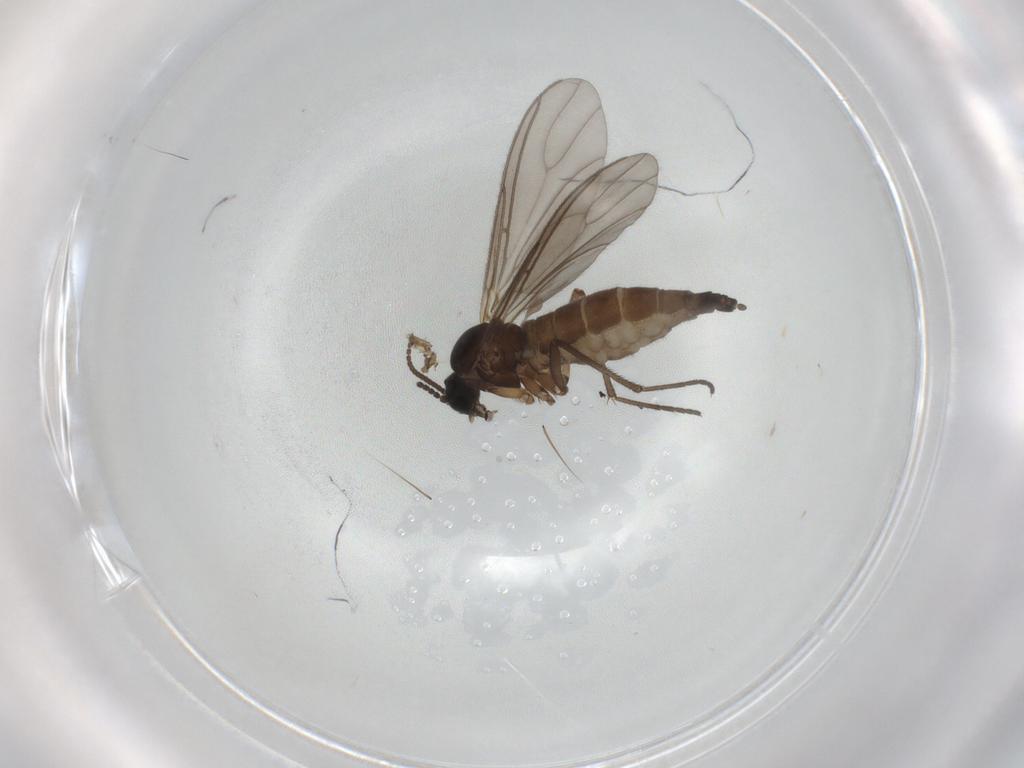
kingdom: Animalia
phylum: Arthropoda
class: Insecta
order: Diptera
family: Sciaridae
